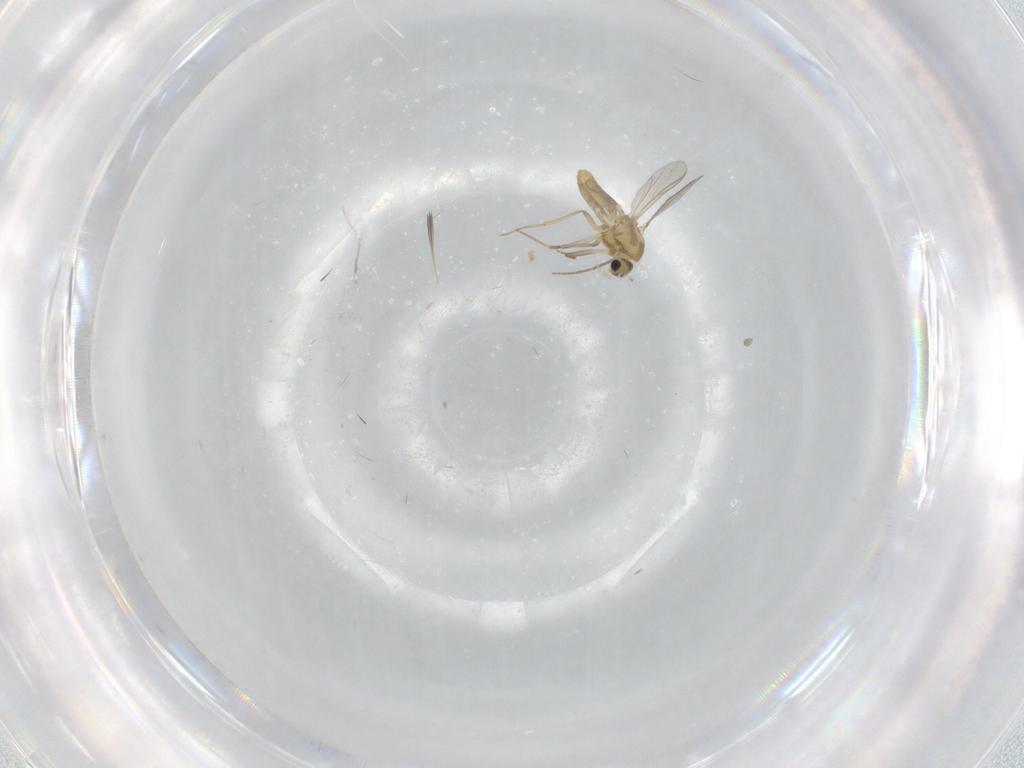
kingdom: Animalia
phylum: Arthropoda
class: Insecta
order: Diptera
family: Chironomidae
